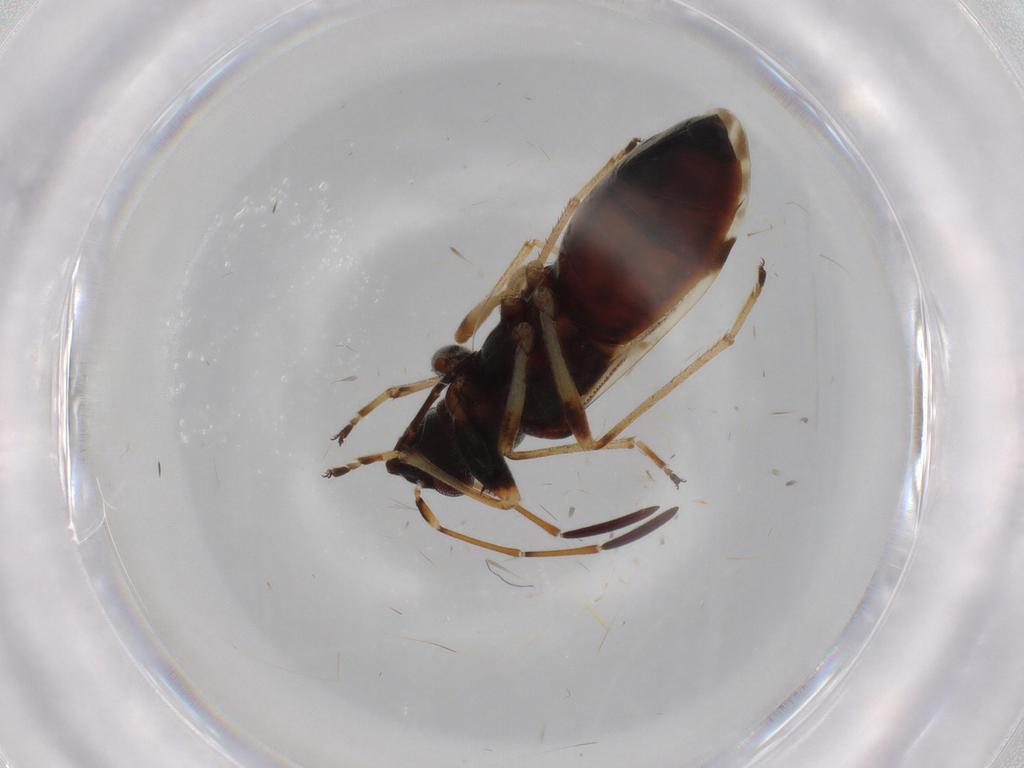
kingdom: Animalia
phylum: Arthropoda
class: Insecta
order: Hemiptera
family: Rhyparochromidae
